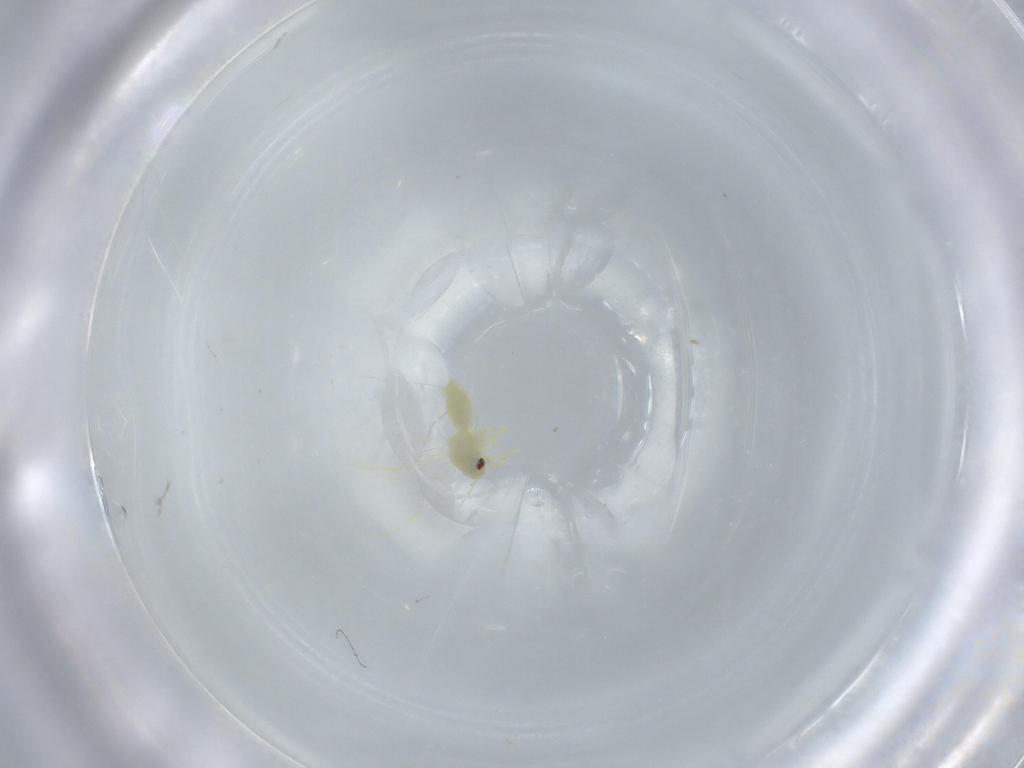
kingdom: Animalia
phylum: Arthropoda
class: Insecta
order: Hemiptera
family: Aleyrodidae
